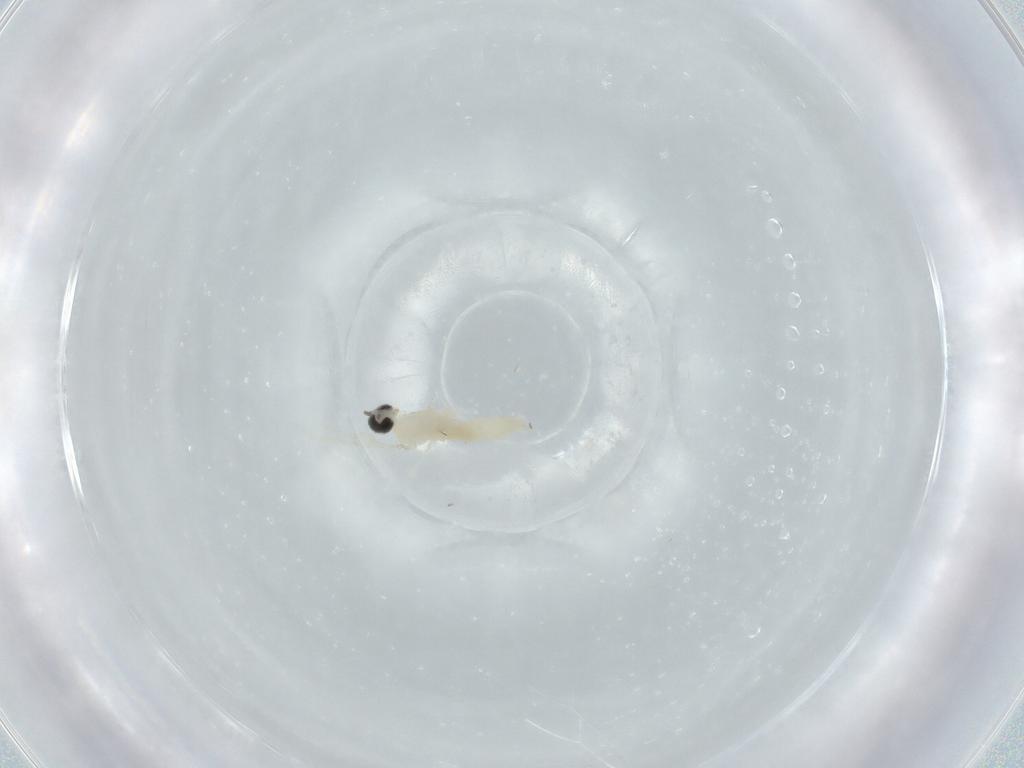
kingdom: Animalia
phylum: Arthropoda
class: Insecta
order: Diptera
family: Cecidomyiidae
